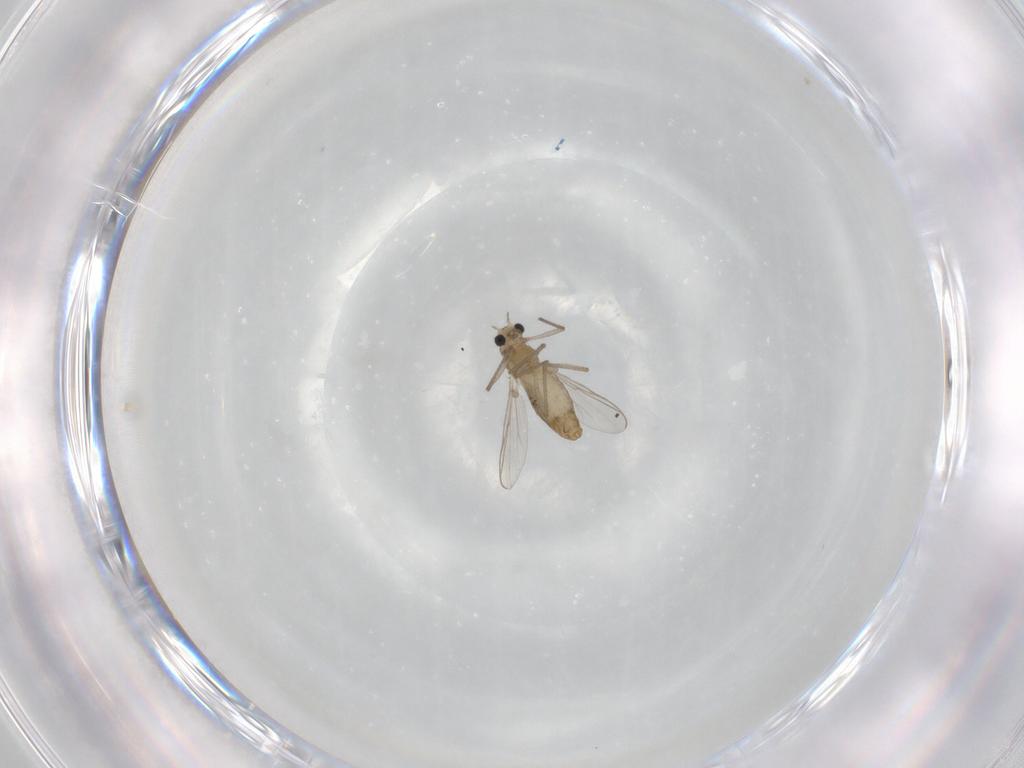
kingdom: Animalia
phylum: Arthropoda
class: Insecta
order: Diptera
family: Chironomidae
